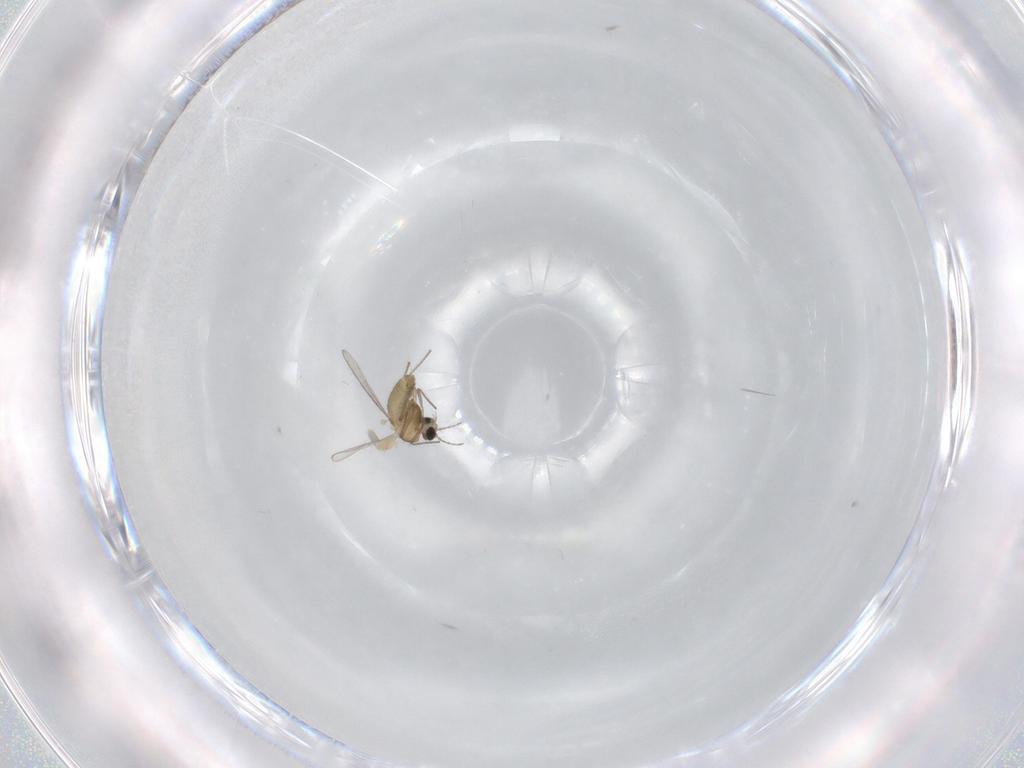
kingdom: Animalia
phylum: Arthropoda
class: Insecta
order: Diptera
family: Chironomidae
